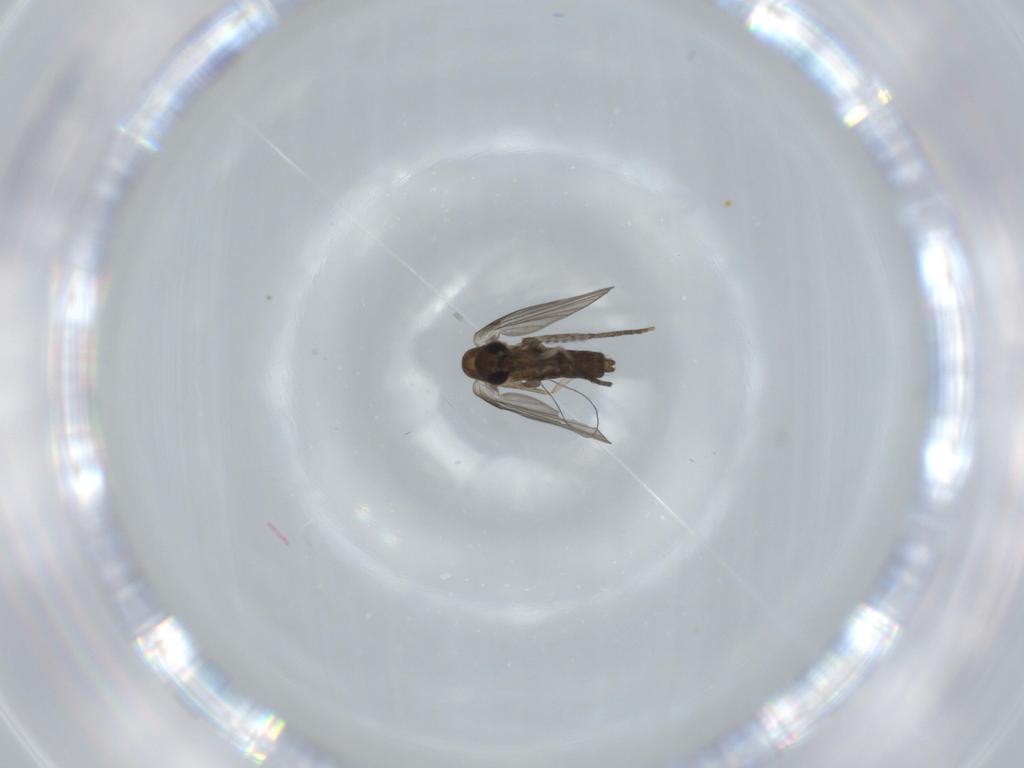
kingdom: Animalia
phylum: Arthropoda
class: Insecta
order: Diptera
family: Psychodidae
